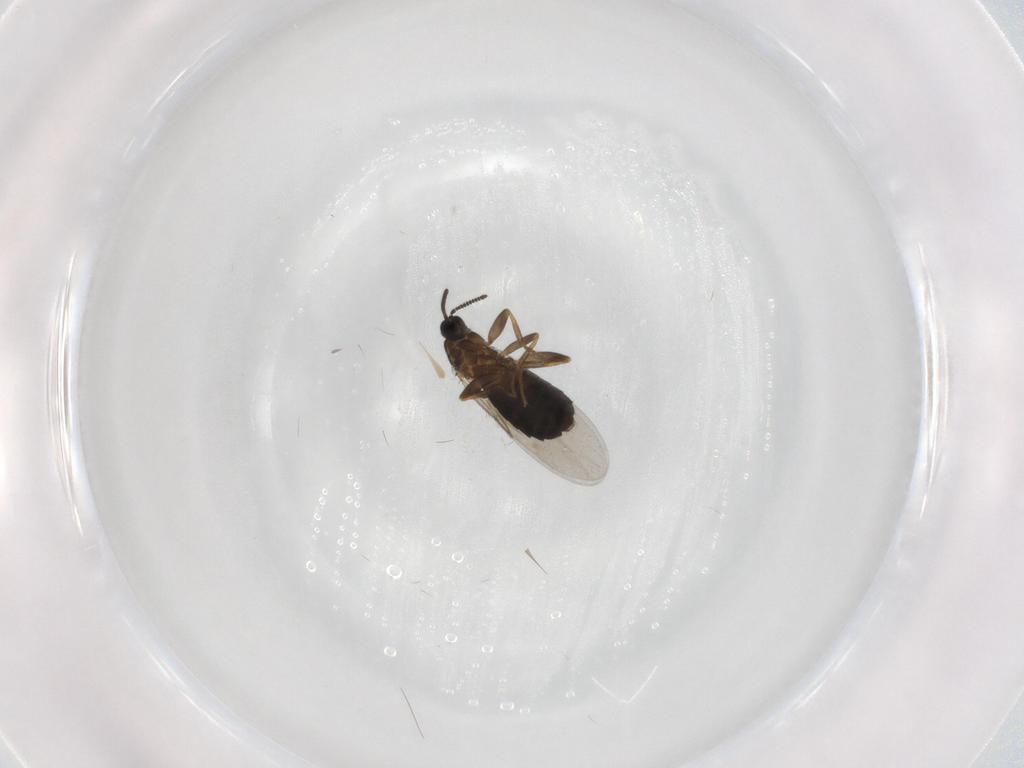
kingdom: Animalia
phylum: Arthropoda
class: Insecta
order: Diptera
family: Scatopsidae
